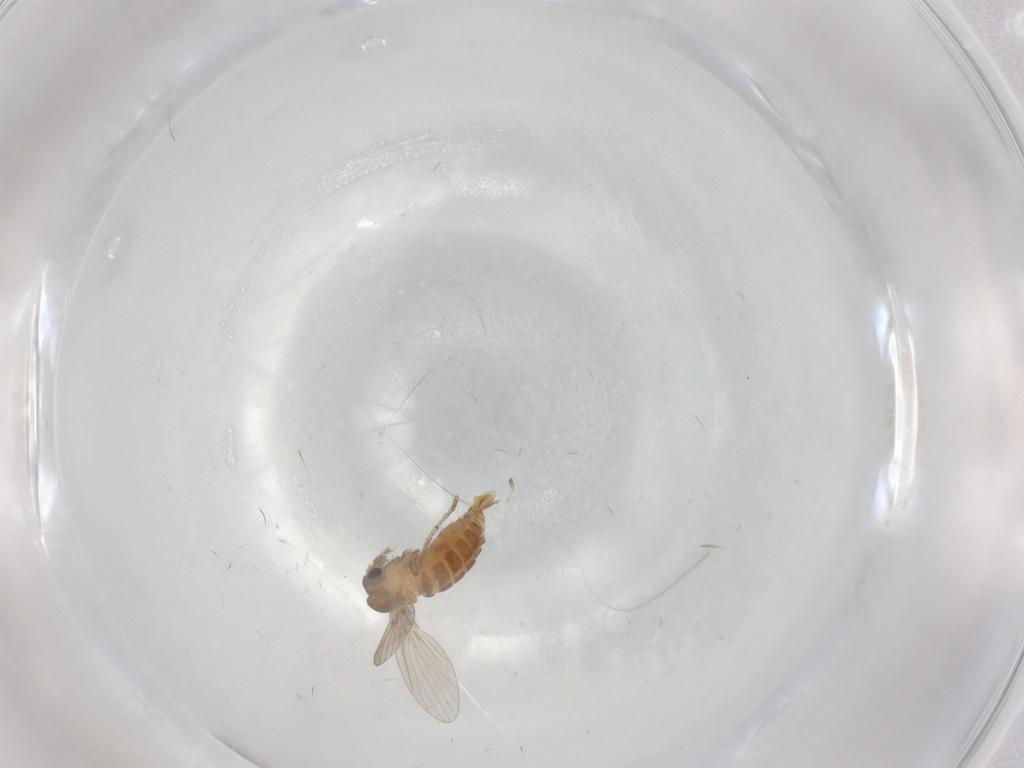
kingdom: Animalia
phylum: Arthropoda
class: Insecta
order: Diptera
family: Psychodidae
